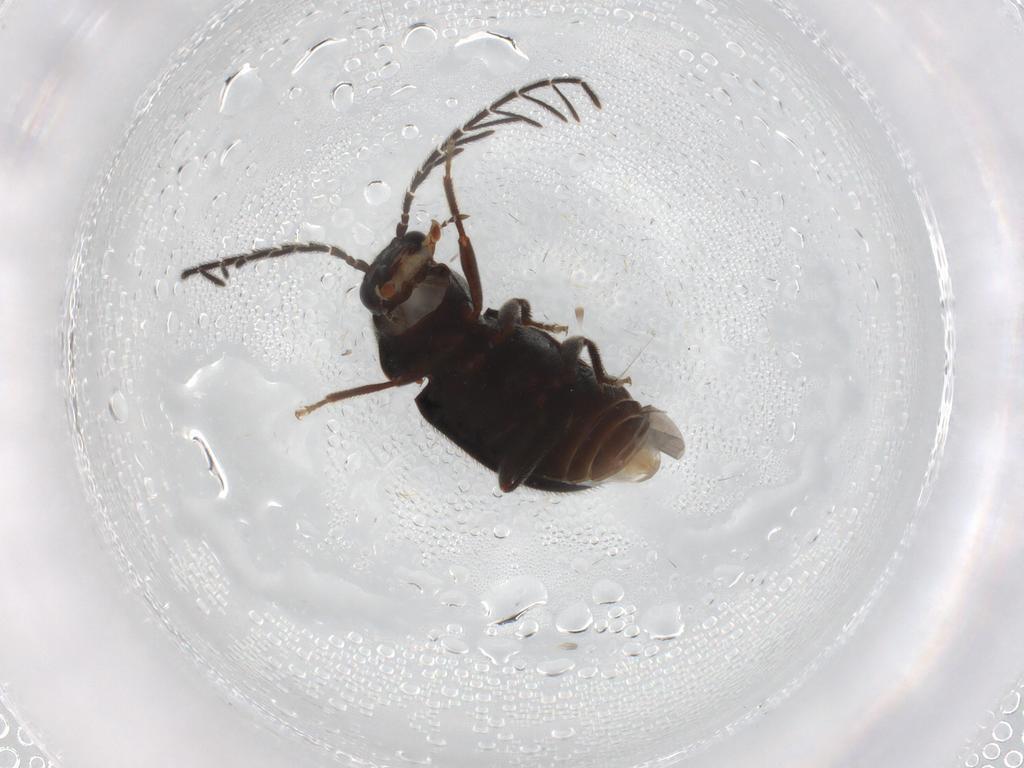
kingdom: Animalia
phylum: Arthropoda
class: Insecta
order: Coleoptera
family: Ptilodactylidae
